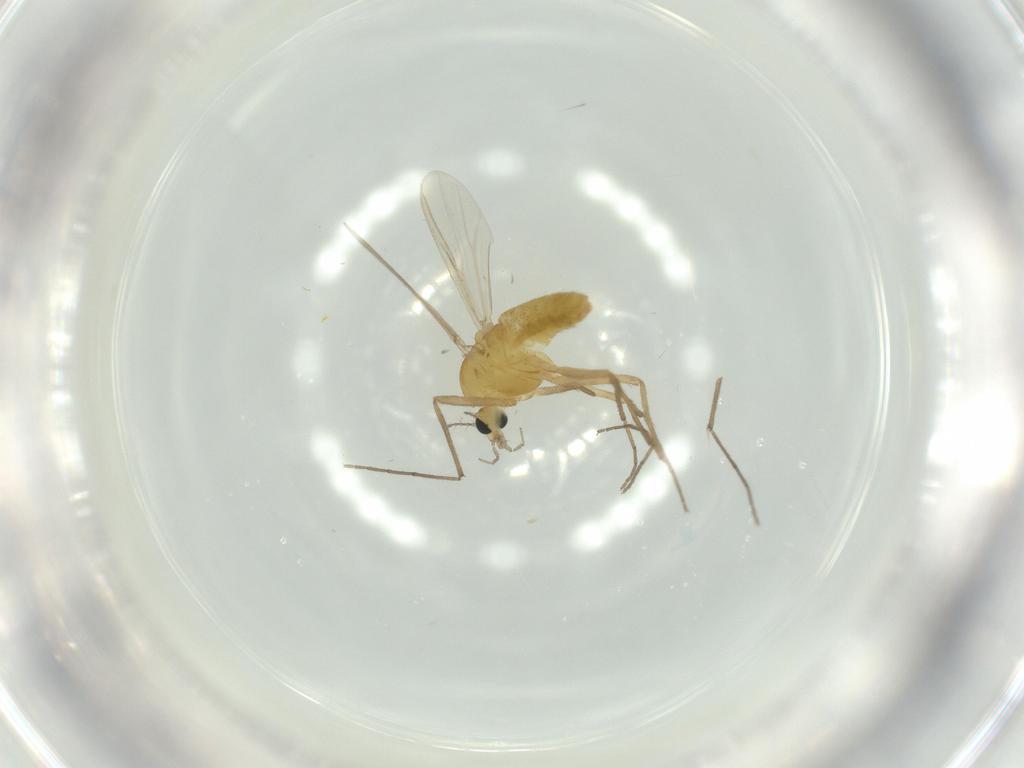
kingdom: Animalia
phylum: Arthropoda
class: Insecta
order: Diptera
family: Chironomidae
